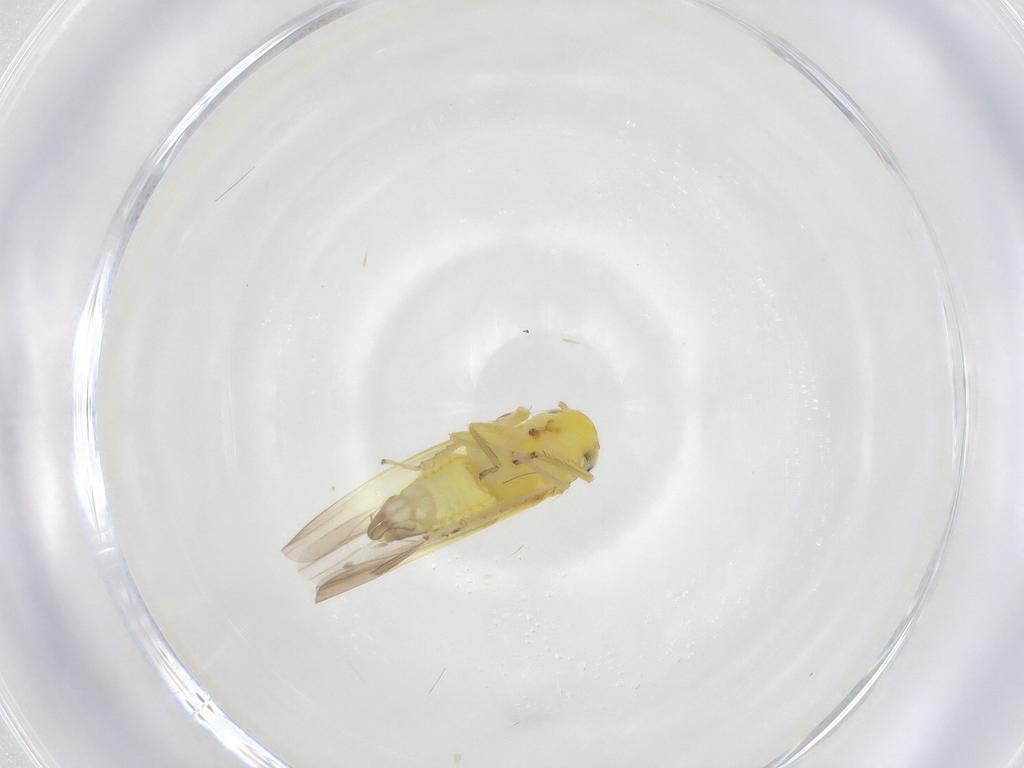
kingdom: Animalia
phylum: Arthropoda
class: Insecta
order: Hemiptera
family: Cicadellidae
